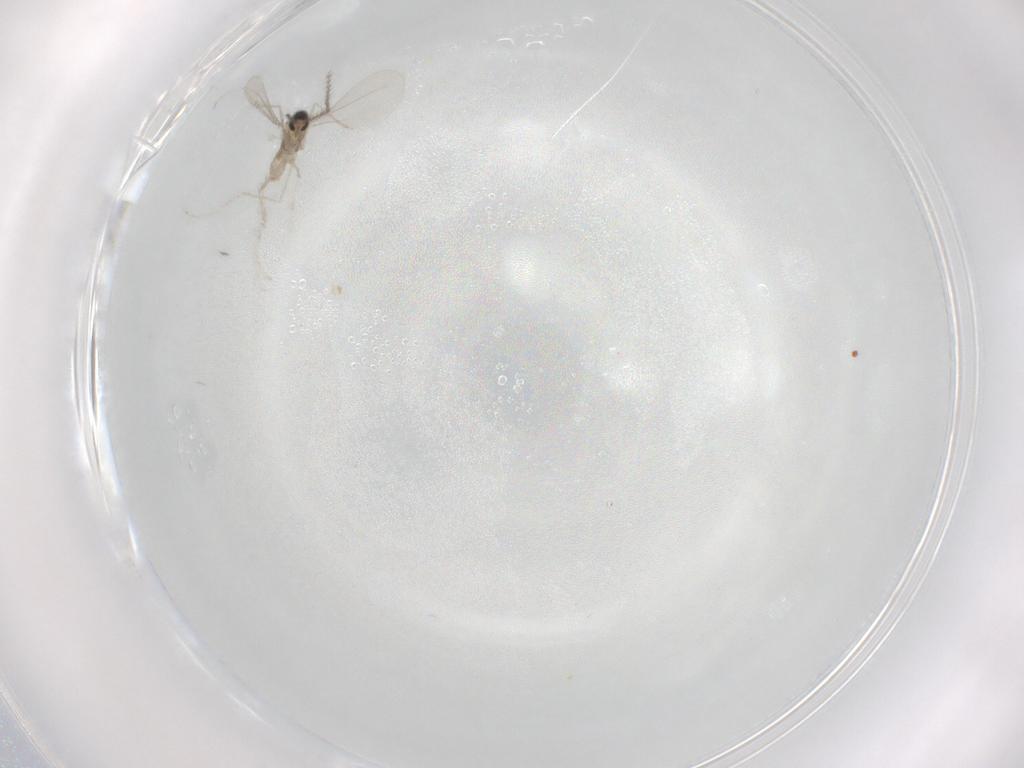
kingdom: Animalia
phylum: Arthropoda
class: Insecta
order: Diptera
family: Cecidomyiidae
